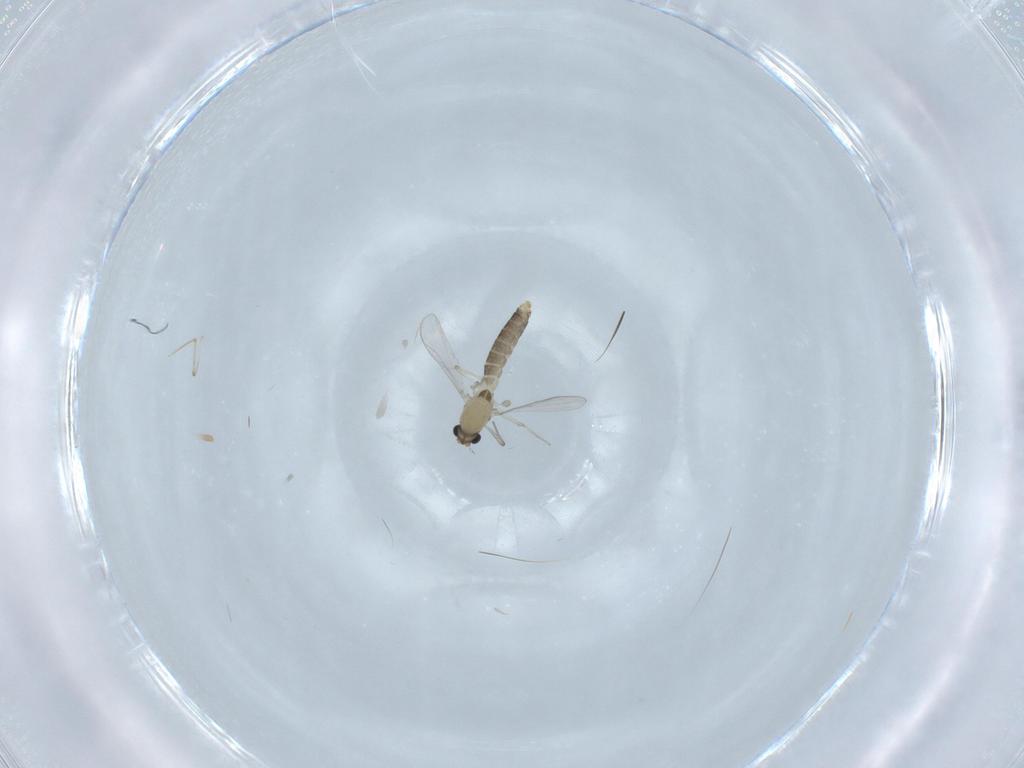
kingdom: Animalia
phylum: Arthropoda
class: Insecta
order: Diptera
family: Chironomidae
